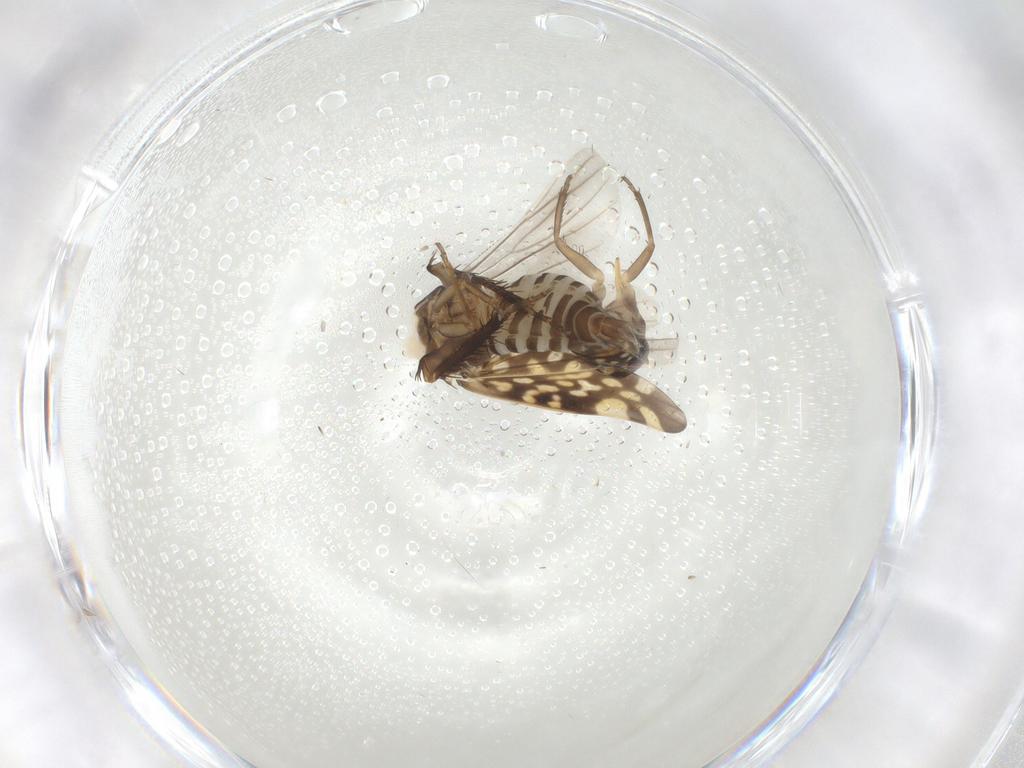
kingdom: Animalia
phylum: Arthropoda
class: Insecta
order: Hemiptera
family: Cicadellidae
